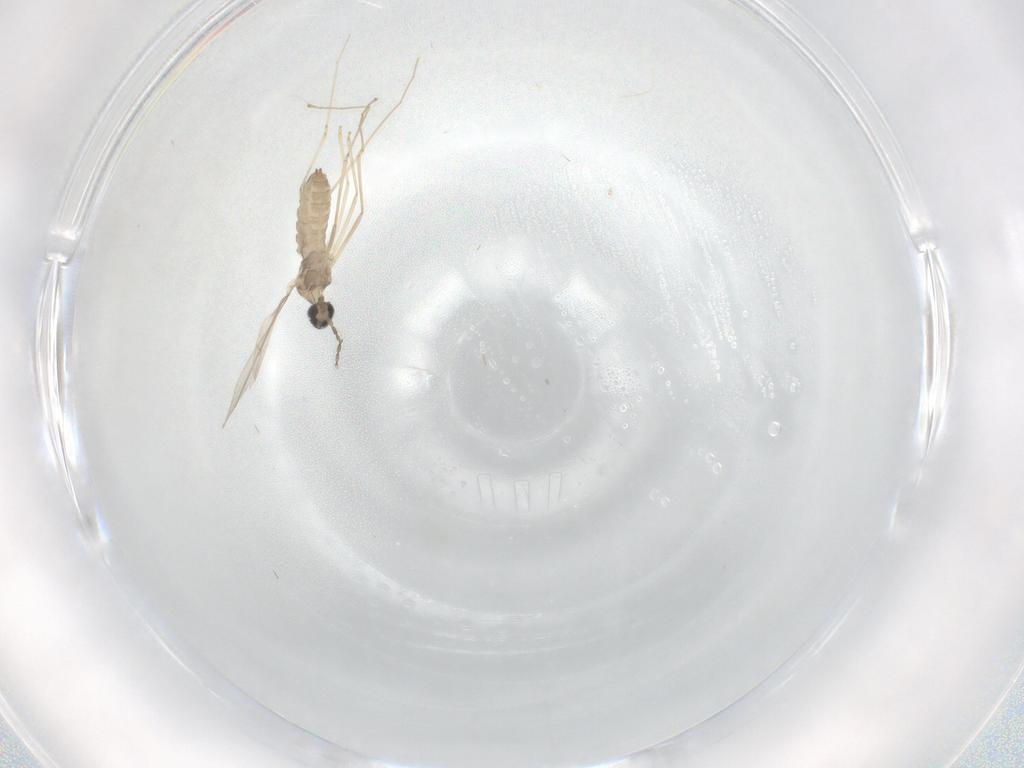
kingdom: Animalia
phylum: Arthropoda
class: Insecta
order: Diptera
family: Cecidomyiidae
